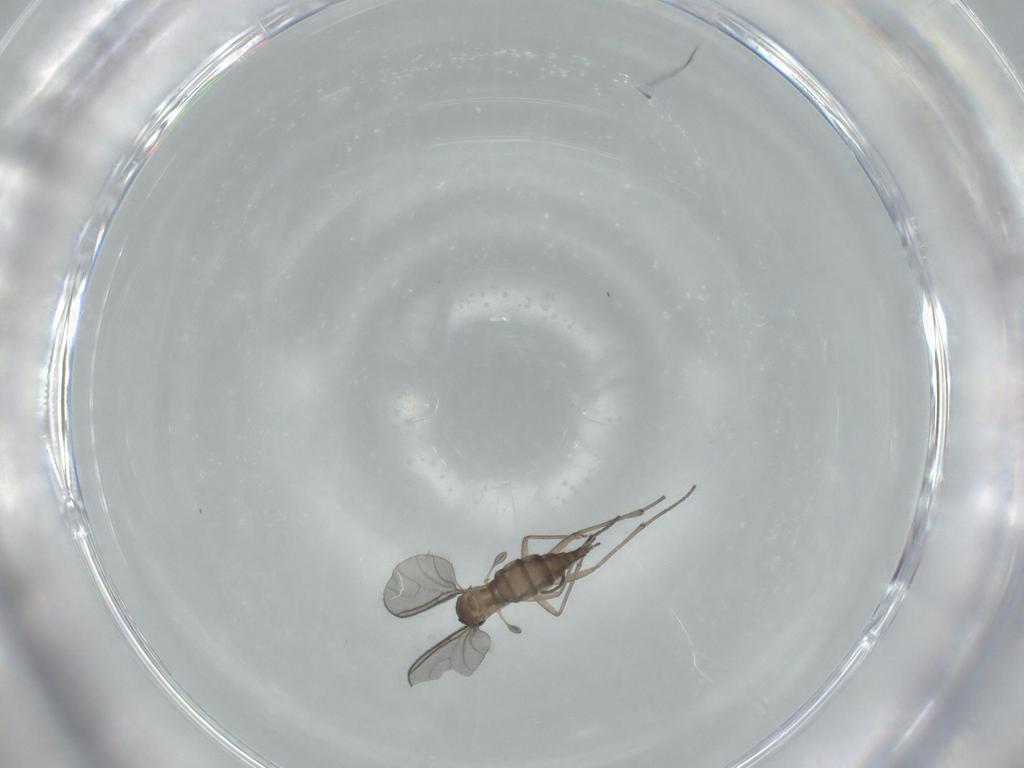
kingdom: Animalia
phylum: Arthropoda
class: Insecta
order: Diptera
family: Sciaridae
